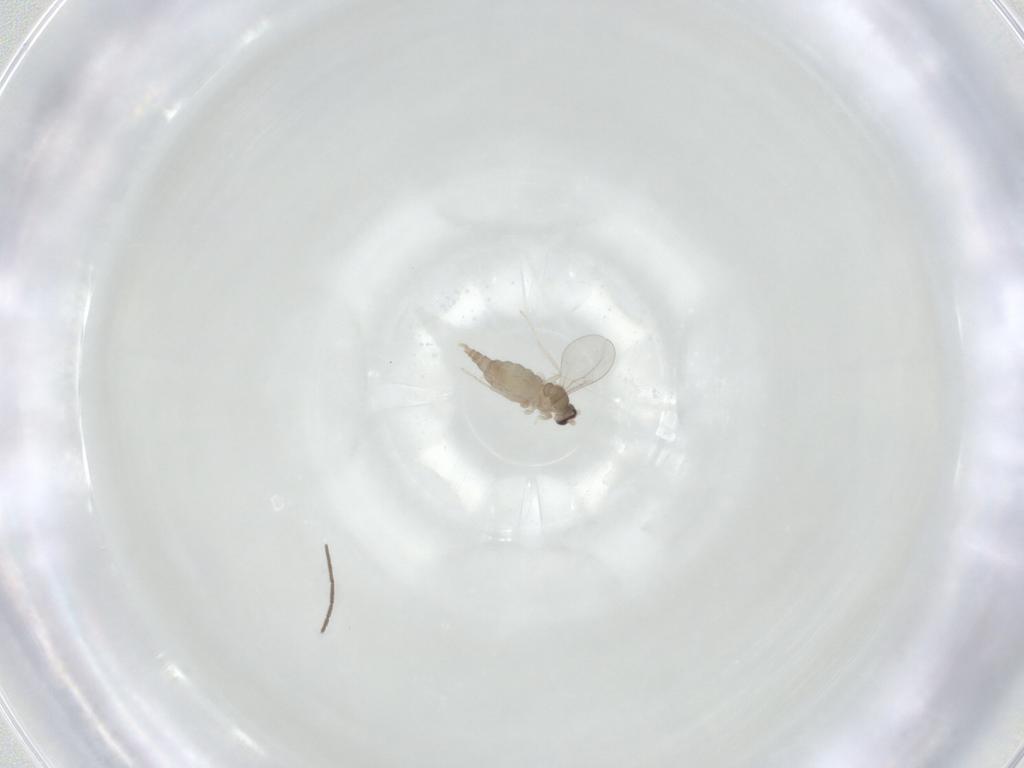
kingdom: Animalia
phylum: Arthropoda
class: Insecta
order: Diptera
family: Cecidomyiidae
